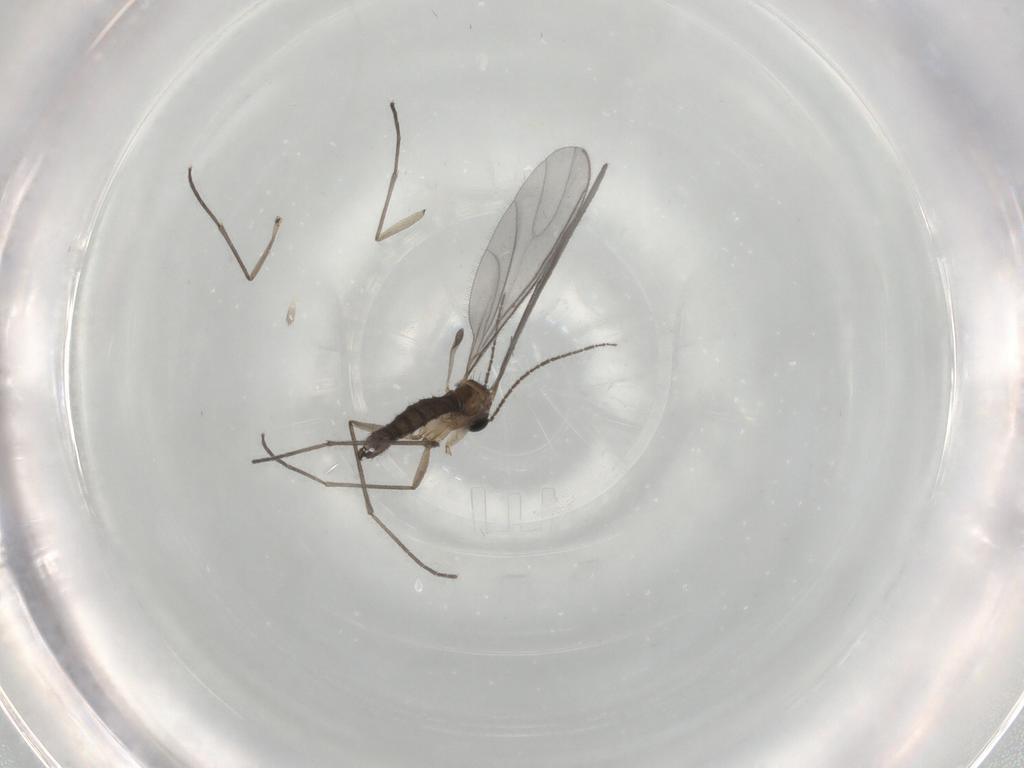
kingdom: Animalia
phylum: Arthropoda
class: Insecta
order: Diptera
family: Sciaridae
